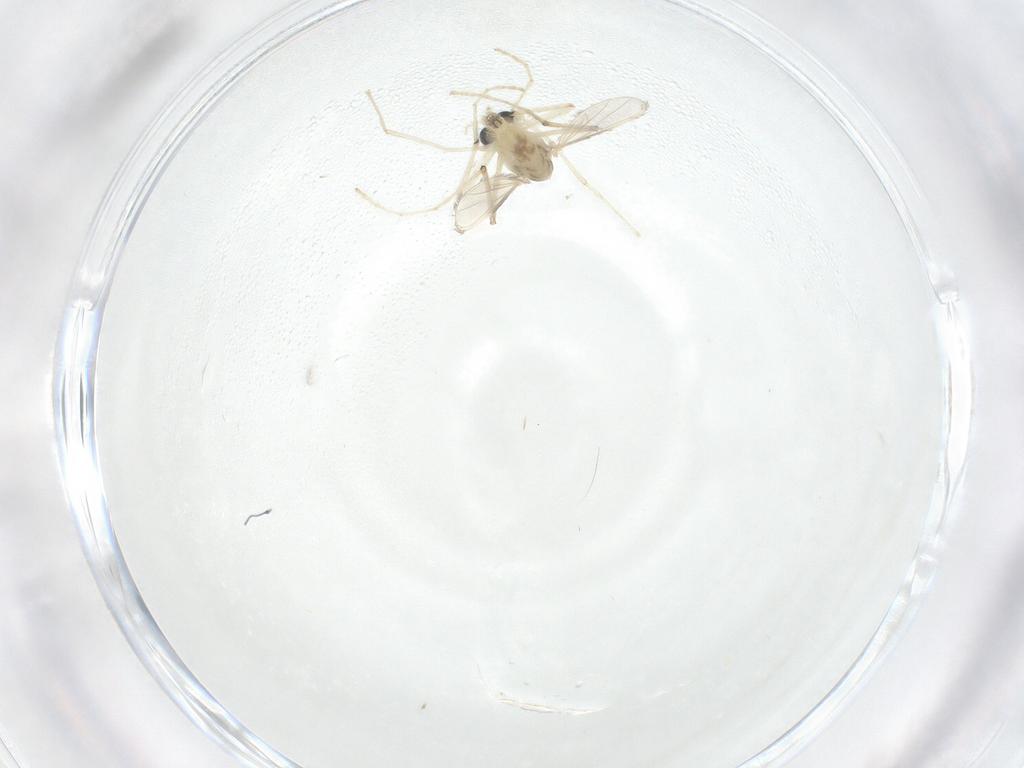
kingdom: Animalia
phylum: Arthropoda
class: Insecta
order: Diptera
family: Chironomidae
